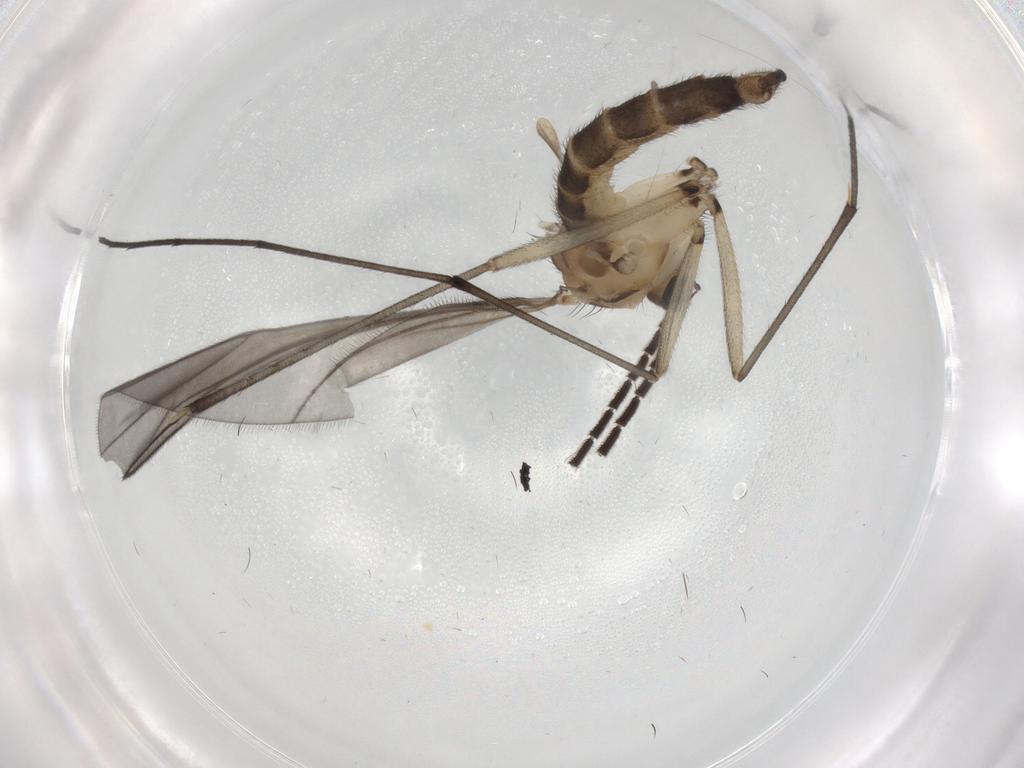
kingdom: Animalia
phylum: Arthropoda
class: Insecta
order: Diptera
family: Sciaridae
